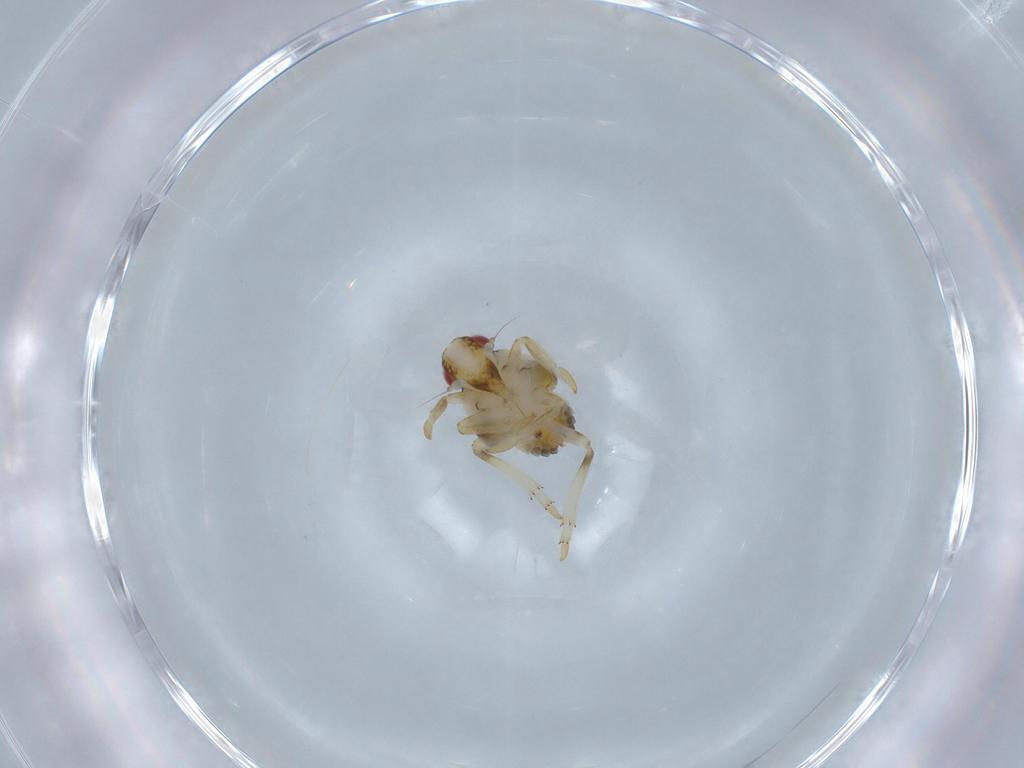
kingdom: Animalia
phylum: Arthropoda
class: Insecta
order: Hemiptera
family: Issidae
